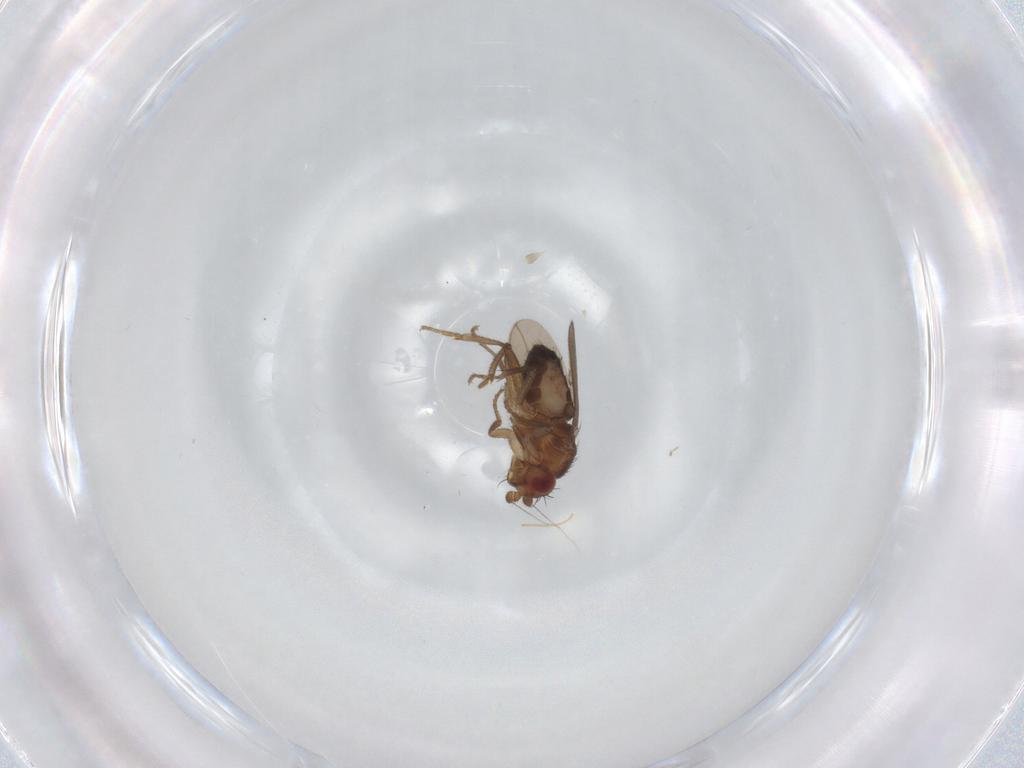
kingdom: Animalia
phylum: Arthropoda
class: Insecta
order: Diptera
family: Sphaeroceridae
